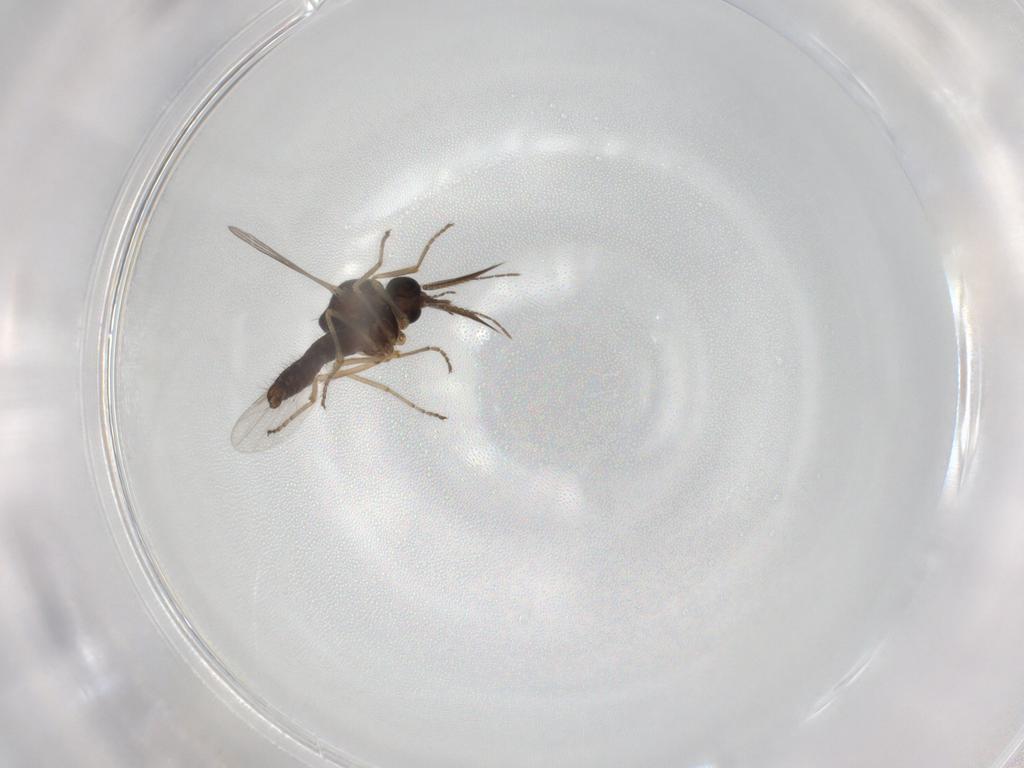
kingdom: Animalia
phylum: Arthropoda
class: Insecta
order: Diptera
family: Ceratopogonidae
